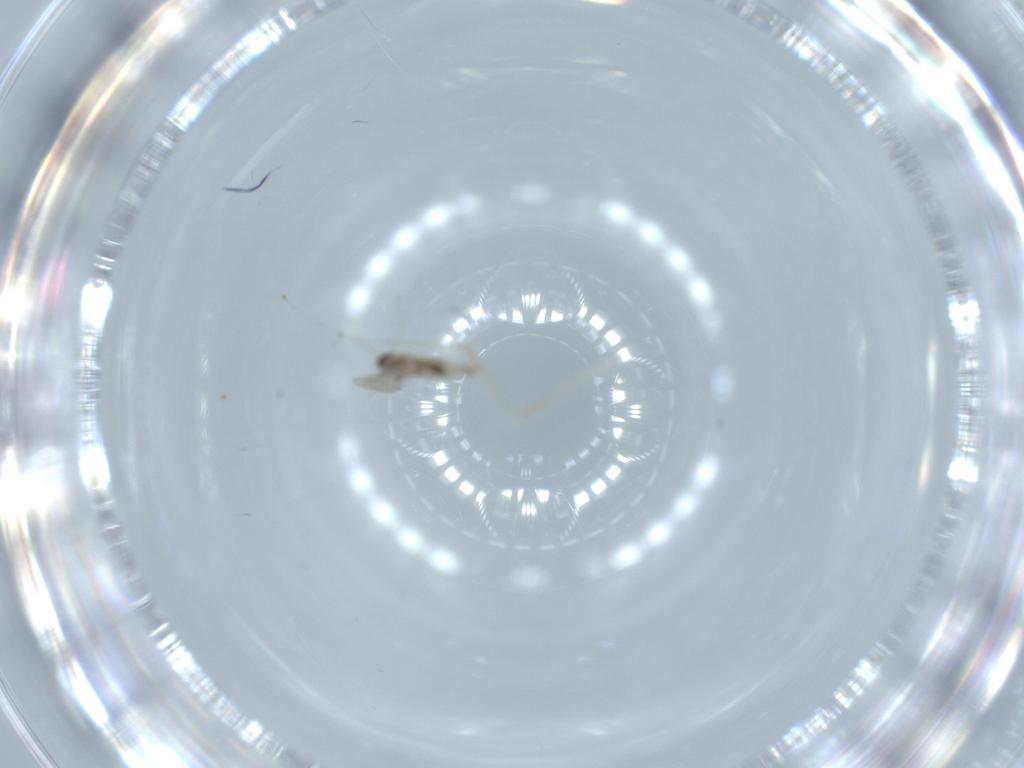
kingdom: Animalia
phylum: Arthropoda
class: Insecta
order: Diptera
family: Cecidomyiidae
